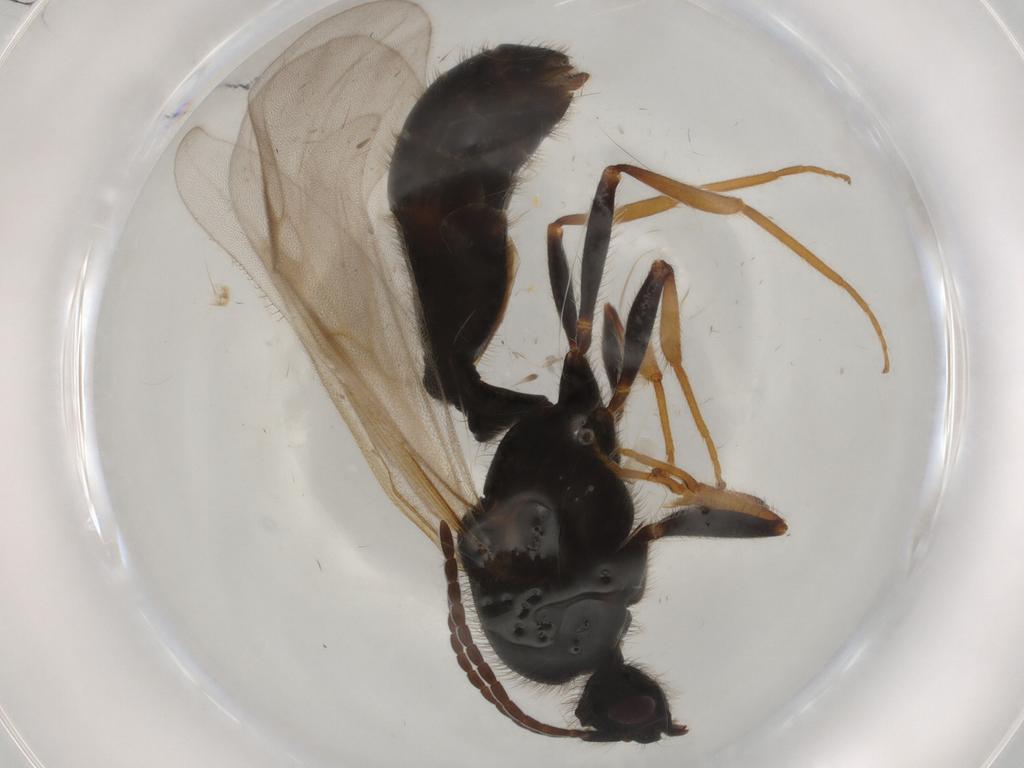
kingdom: Animalia
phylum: Arthropoda
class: Insecta
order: Hymenoptera
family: Formicidae
